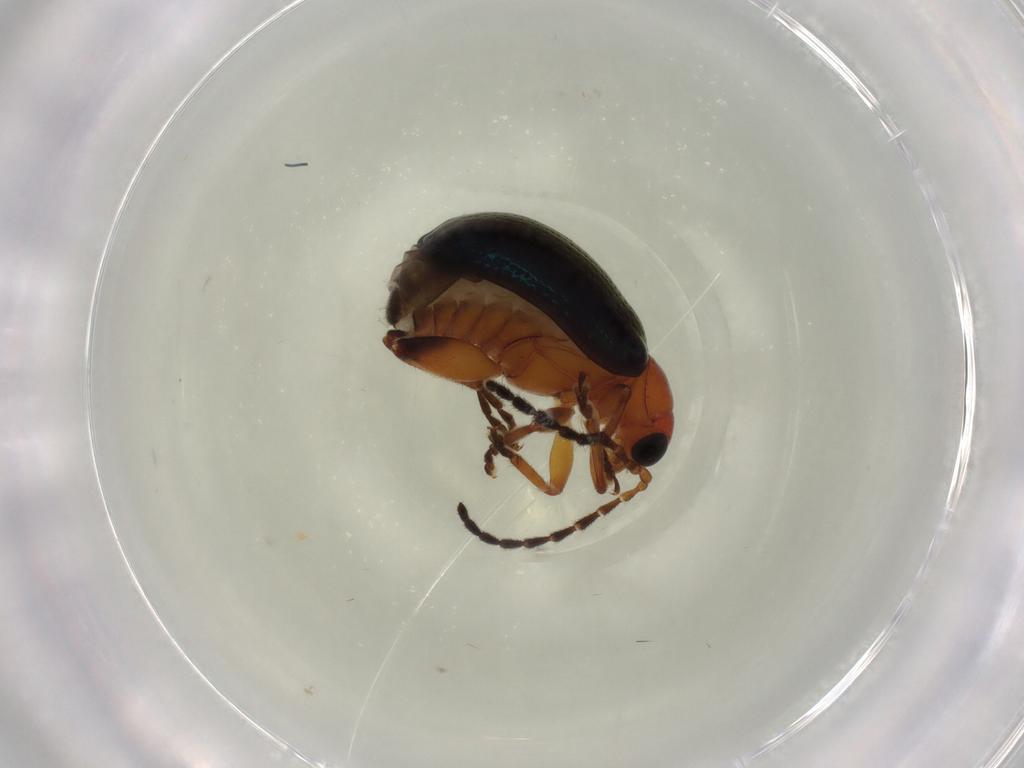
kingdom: Animalia
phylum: Arthropoda
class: Insecta
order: Coleoptera
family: Chrysomelidae
